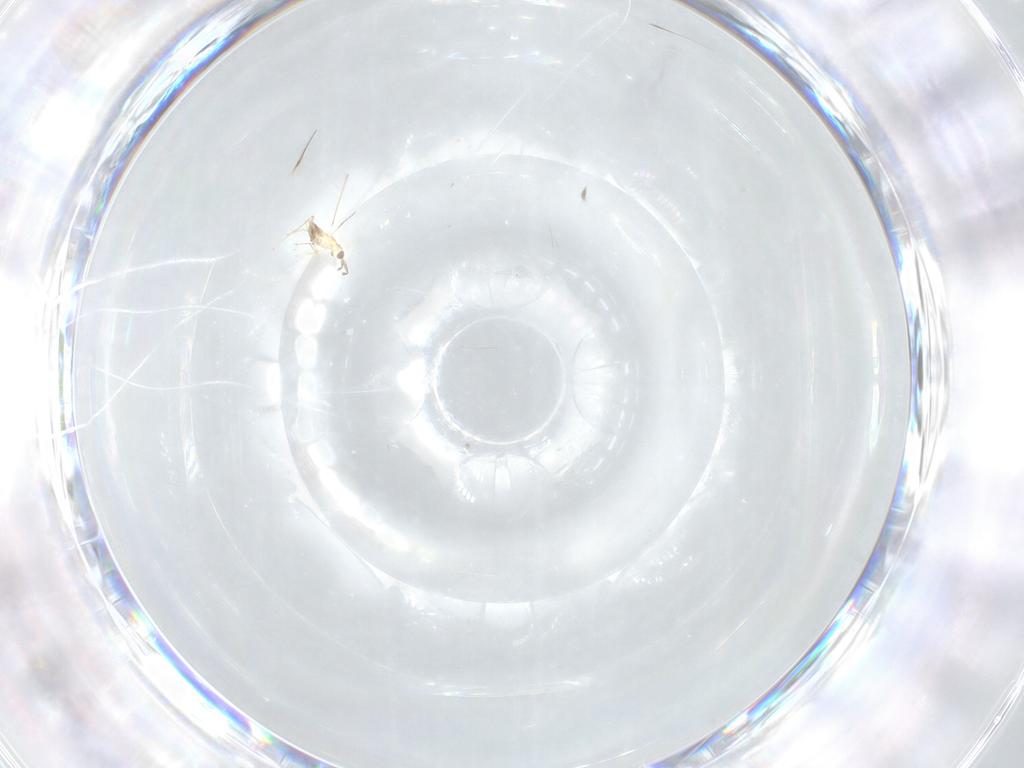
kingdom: Animalia
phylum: Arthropoda
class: Insecta
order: Hymenoptera
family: Mymaridae
